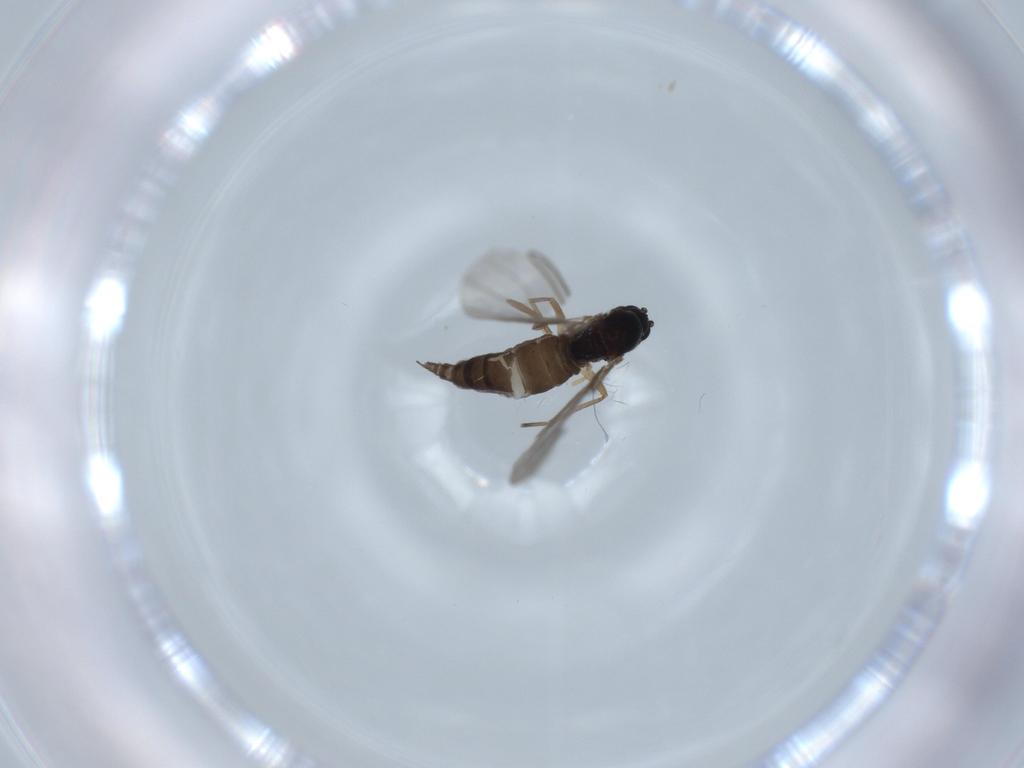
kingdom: Animalia
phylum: Arthropoda
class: Insecta
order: Diptera
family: Sciaridae
